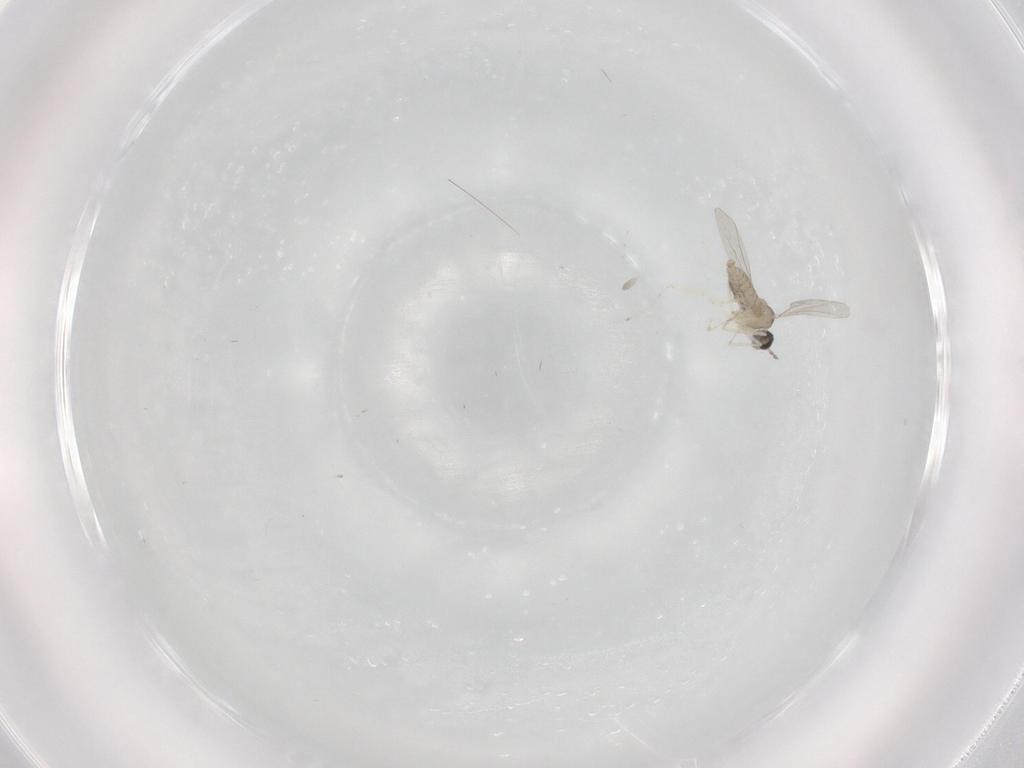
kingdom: Animalia
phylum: Arthropoda
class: Insecta
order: Diptera
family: Cecidomyiidae
